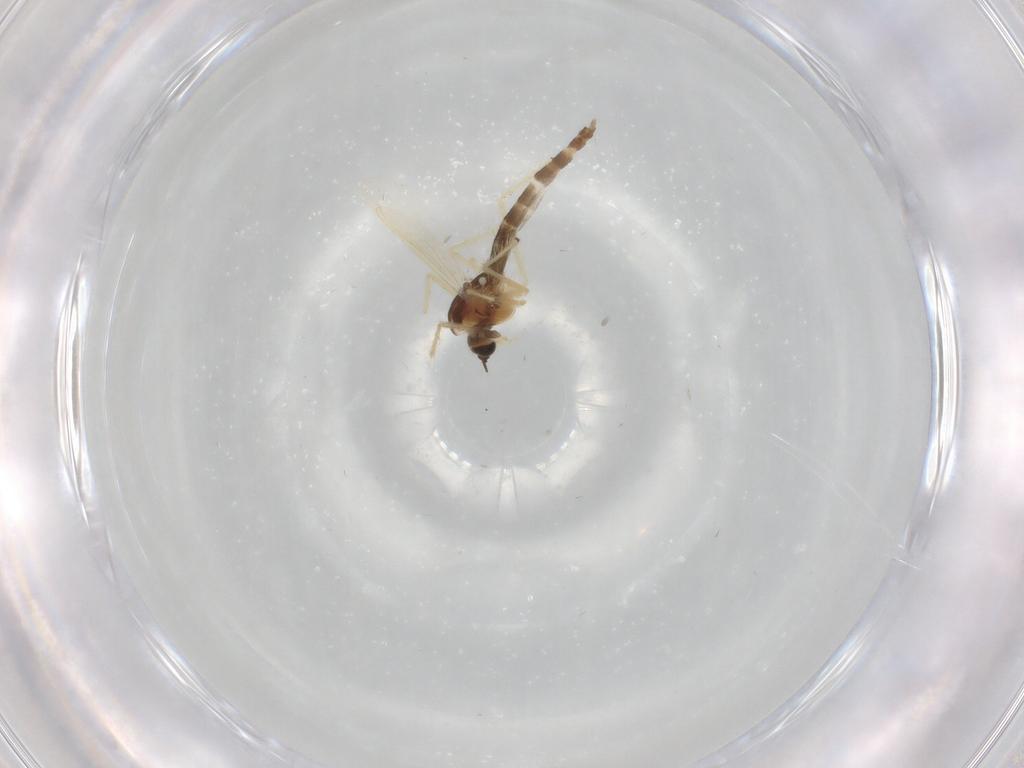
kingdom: Animalia
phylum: Arthropoda
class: Insecta
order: Diptera
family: Chironomidae
